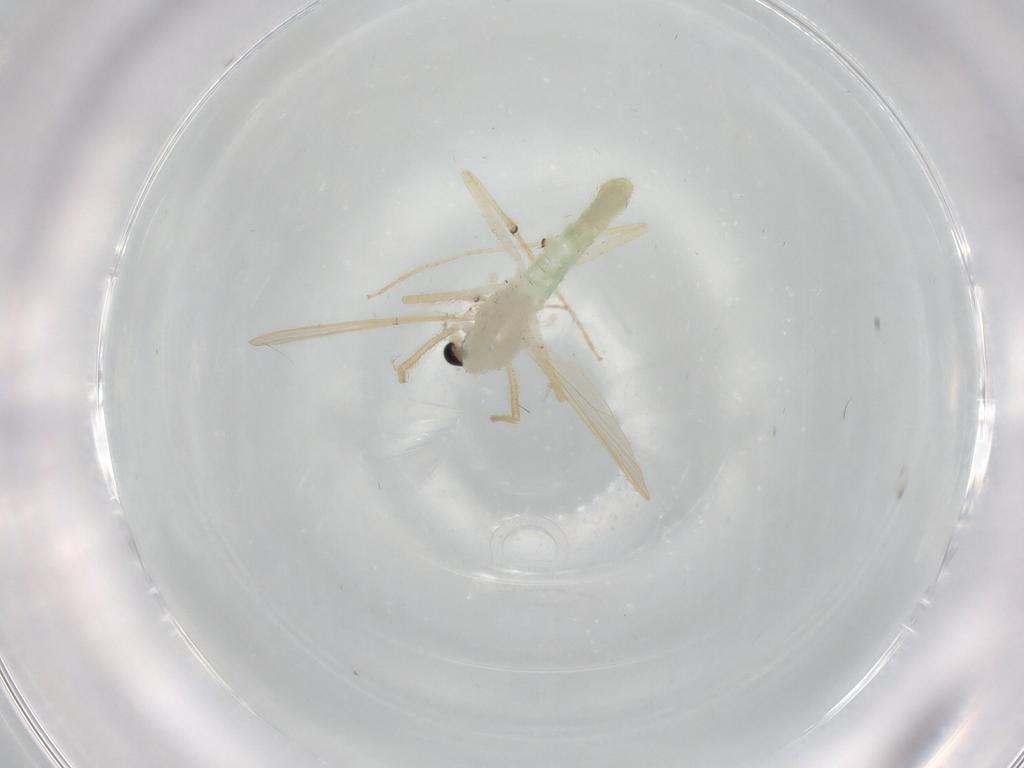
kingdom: Animalia
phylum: Arthropoda
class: Insecta
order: Diptera
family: Chironomidae
